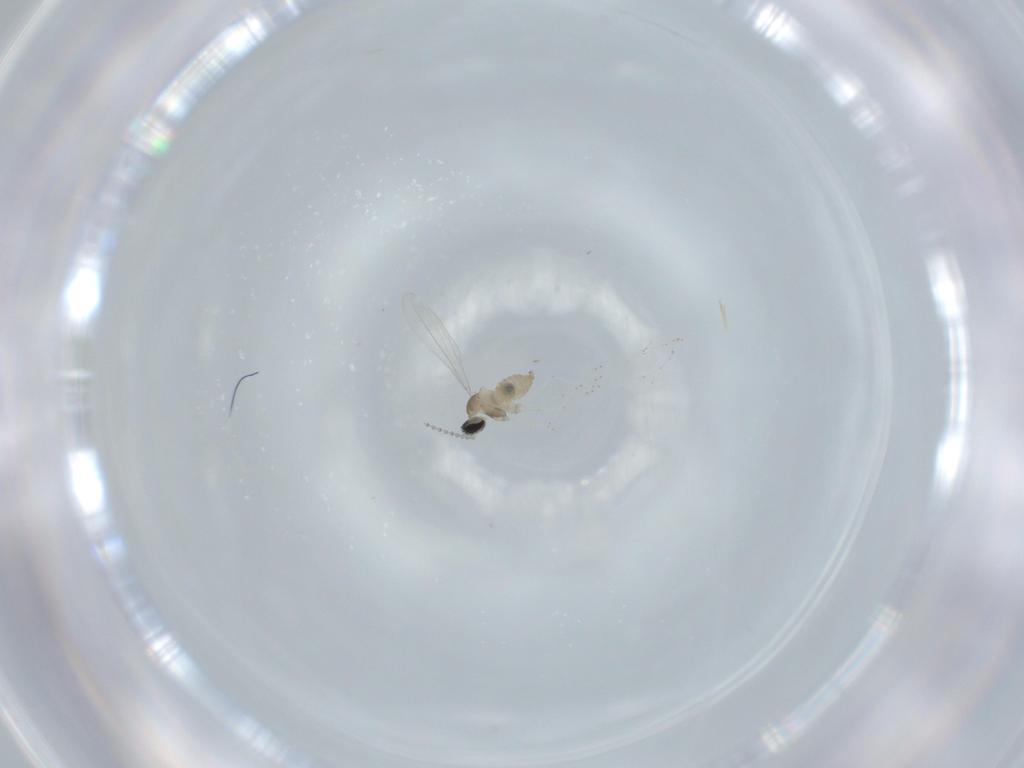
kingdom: Animalia
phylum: Arthropoda
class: Insecta
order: Diptera
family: Cecidomyiidae
